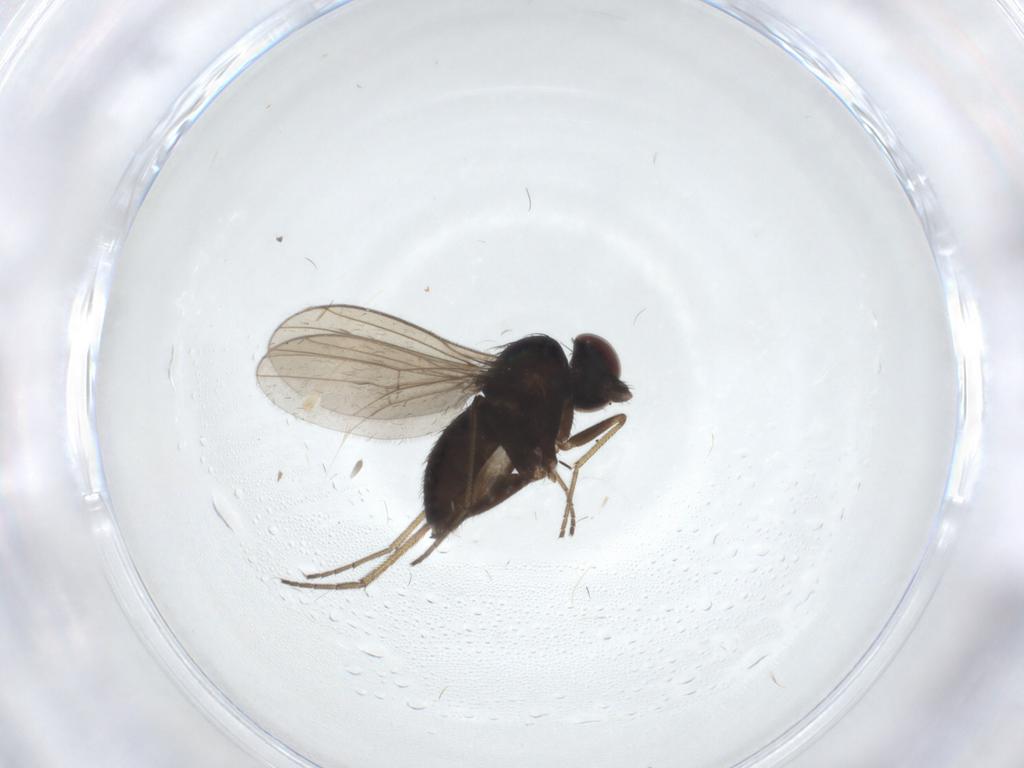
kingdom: Animalia
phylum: Arthropoda
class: Insecta
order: Diptera
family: Dolichopodidae
